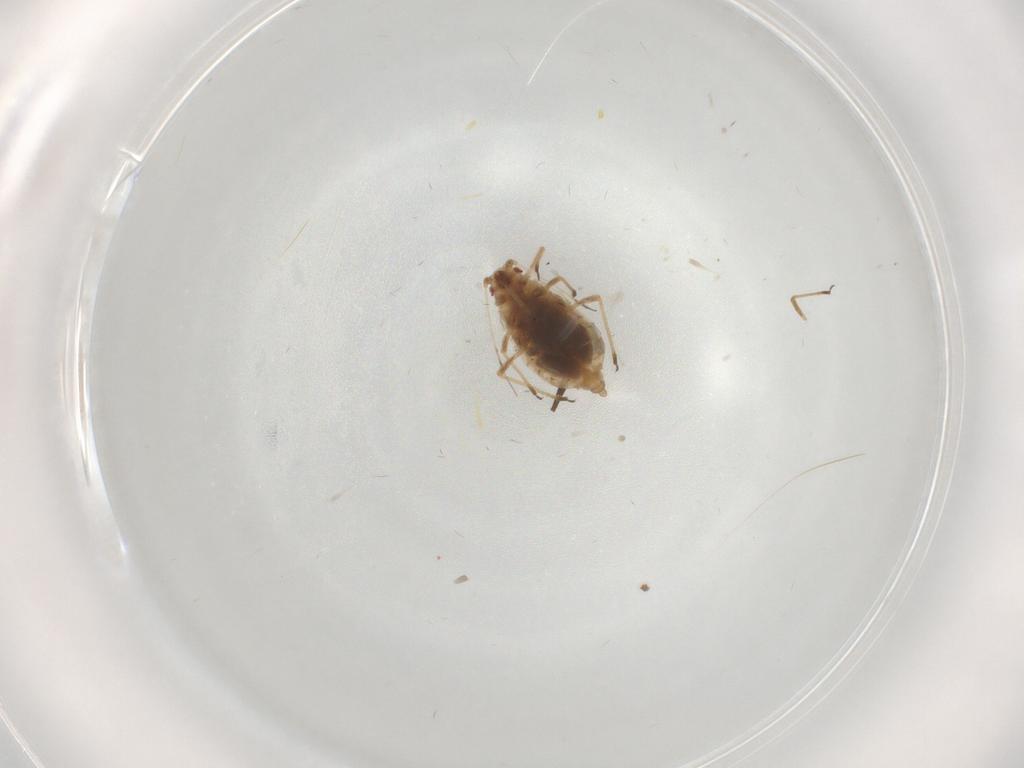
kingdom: Animalia
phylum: Arthropoda
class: Insecta
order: Hemiptera
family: Aphididae
